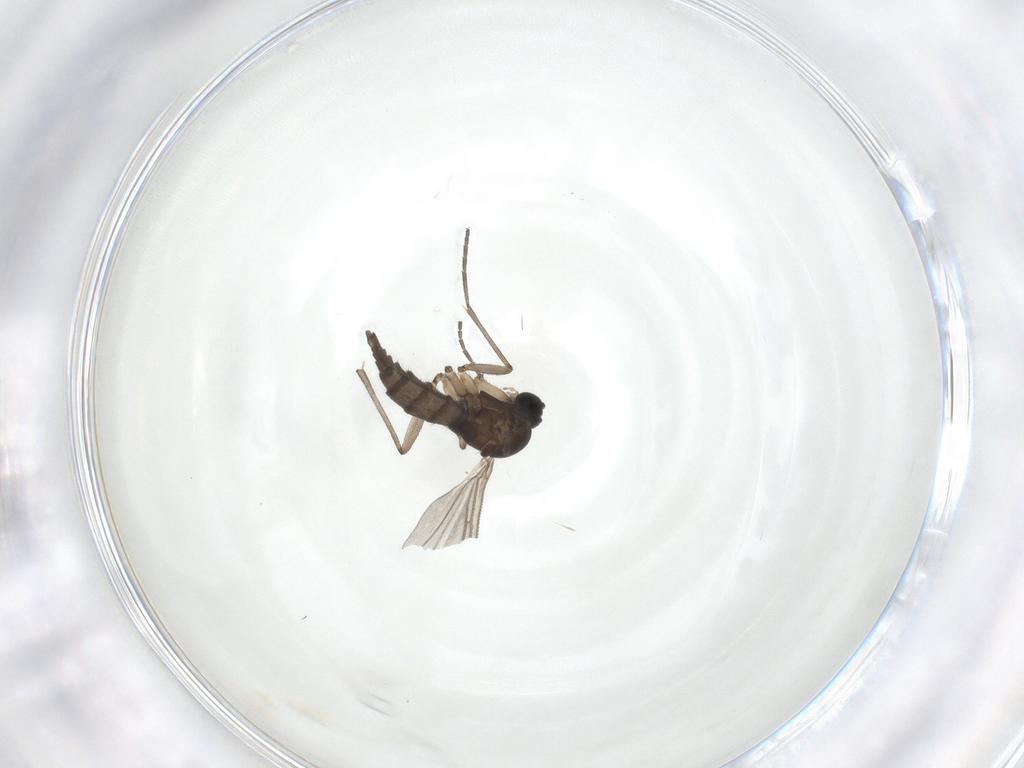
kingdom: Animalia
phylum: Arthropoda
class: Insecta
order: Diptera
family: Sciaridae
